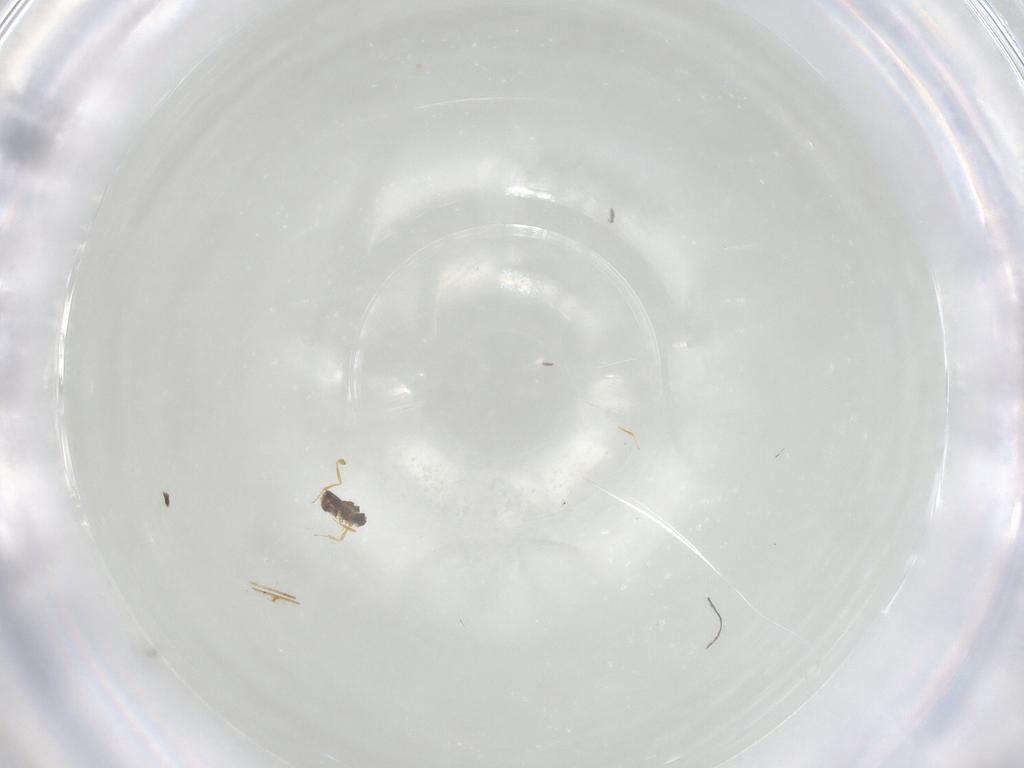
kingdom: Animalia
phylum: Arthropoda
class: Insecta
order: Hymenoptera
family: Mymaridae
